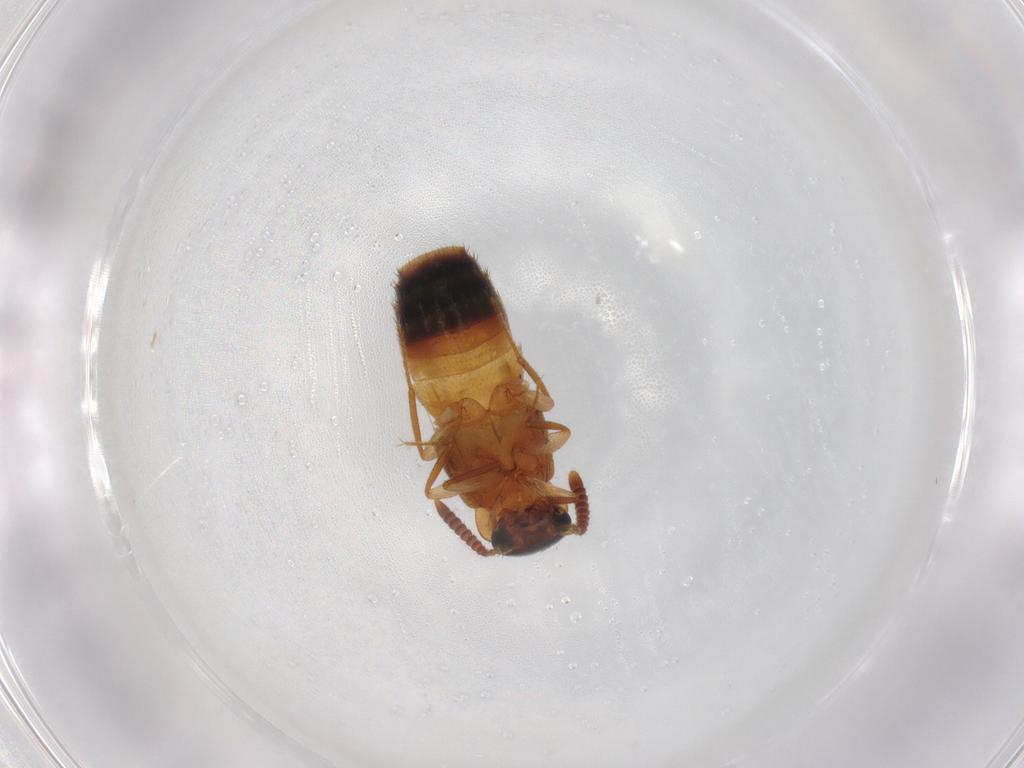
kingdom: Animalia
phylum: Arthropoda
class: Insecta
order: Coleoptera
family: Staphylinidae
